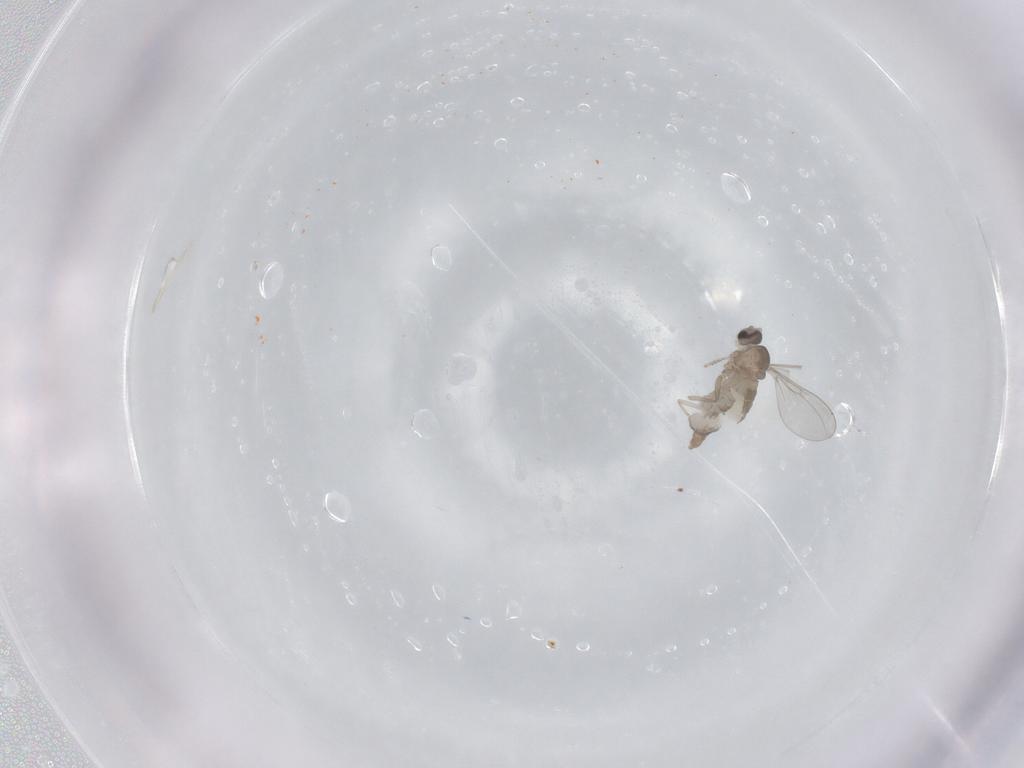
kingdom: Animalia
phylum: Arthropoda
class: Insecta
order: Diptera
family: Cecidomyiidae
